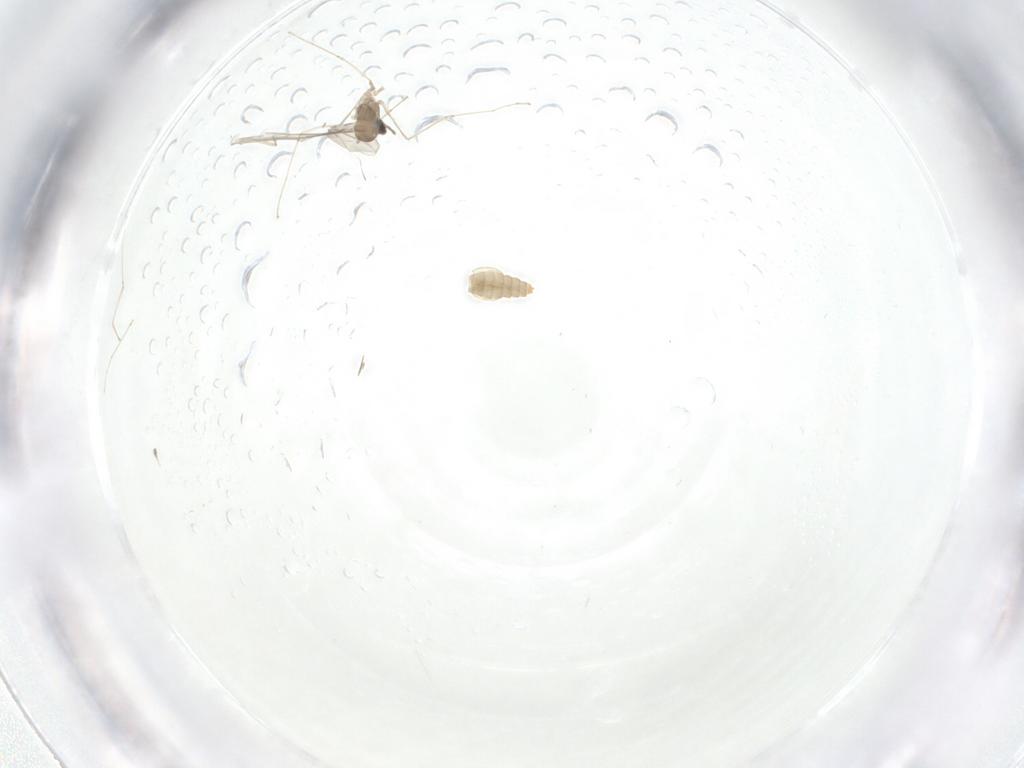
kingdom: Animalia
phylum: Arthropoda
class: Insecta
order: Diptera
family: Cecidomyiidae
